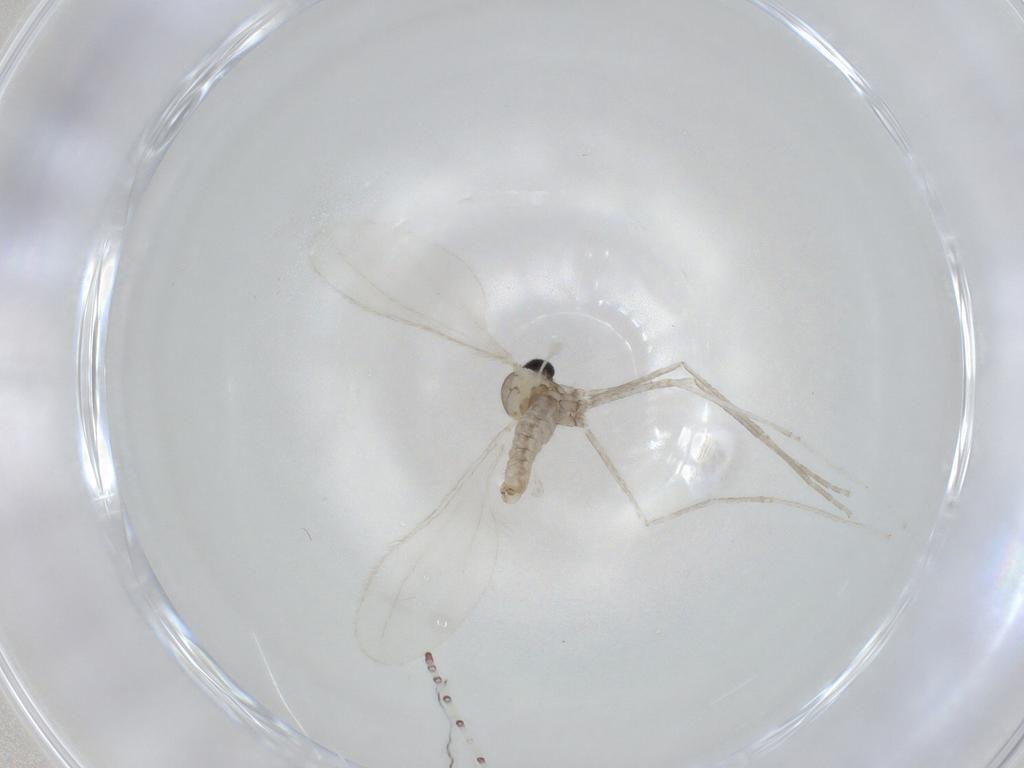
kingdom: Animalia
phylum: Arthropoda
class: Insecta
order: Diptera
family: Cecidomyiidae
